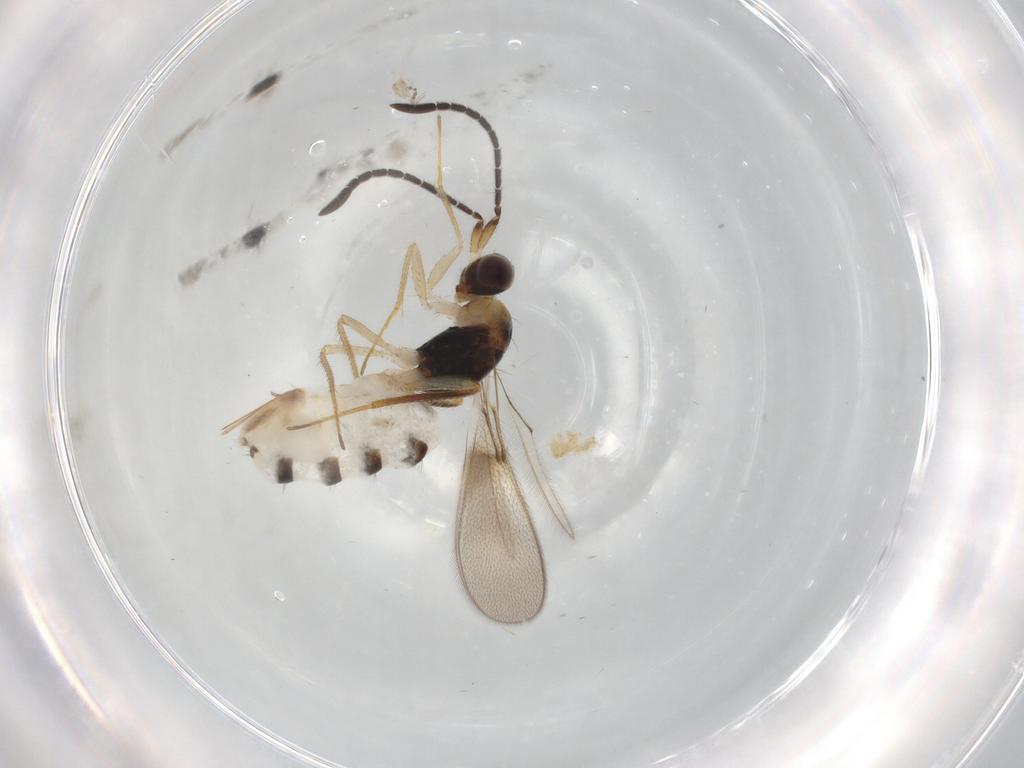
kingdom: Animalia
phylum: Arthropoda
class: Insecta
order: Hymenoptera
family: Mymaridae
